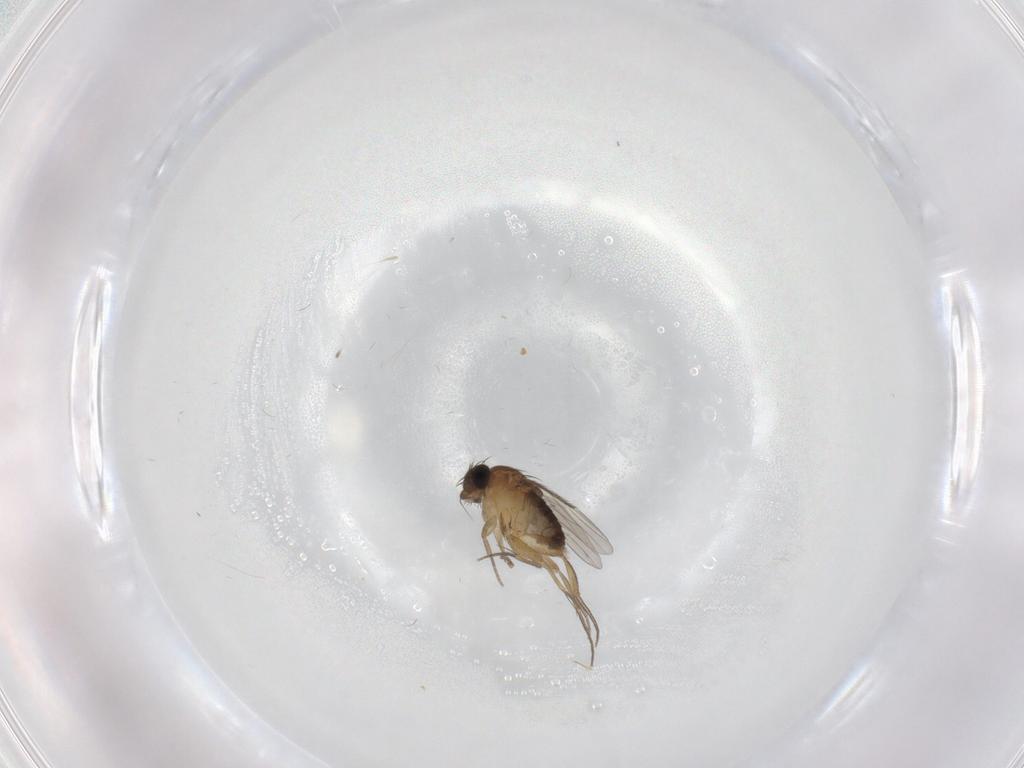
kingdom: Animalia
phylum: Arthropoda
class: Insecta
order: Diptera
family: Phoridae
